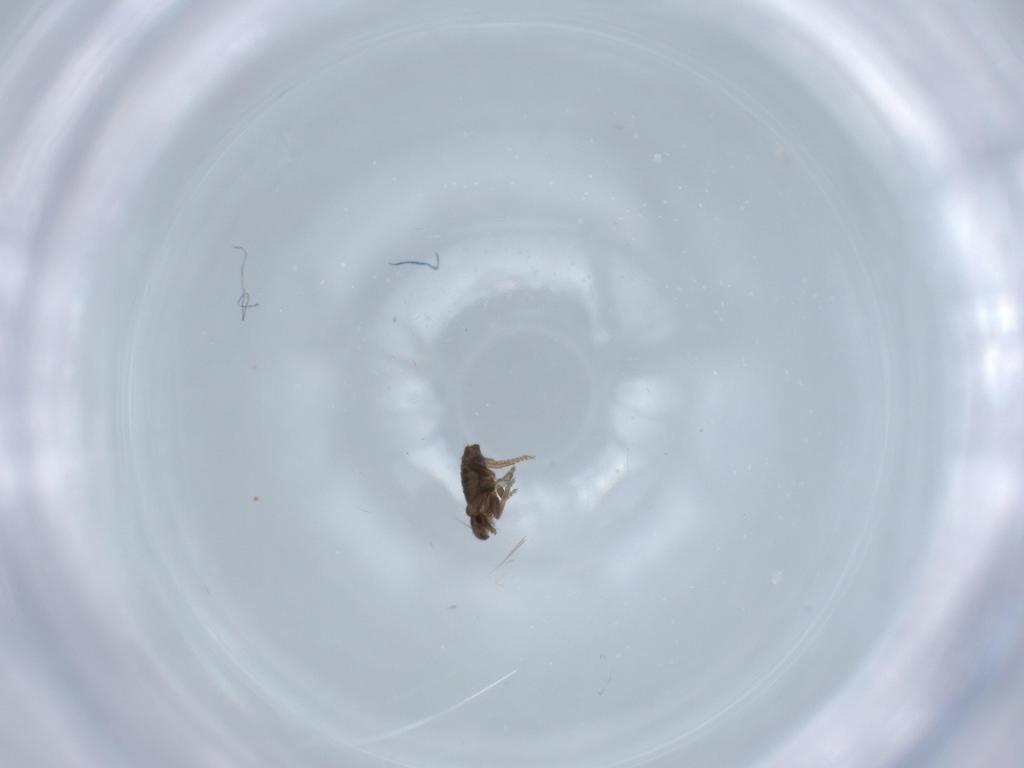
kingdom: Animalia
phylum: Arthropoda
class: Insecta
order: Diptera
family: Phoridae
